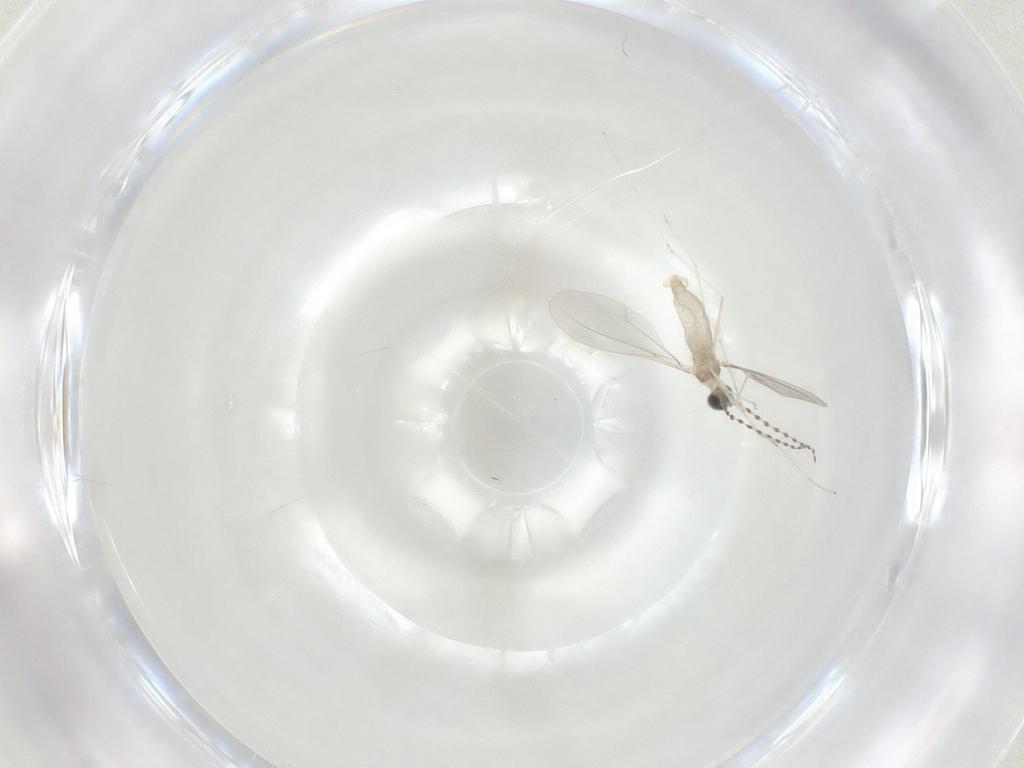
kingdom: Animalia
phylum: Arthropoda
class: Insecta
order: Diptera
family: Cecidomyiidae
